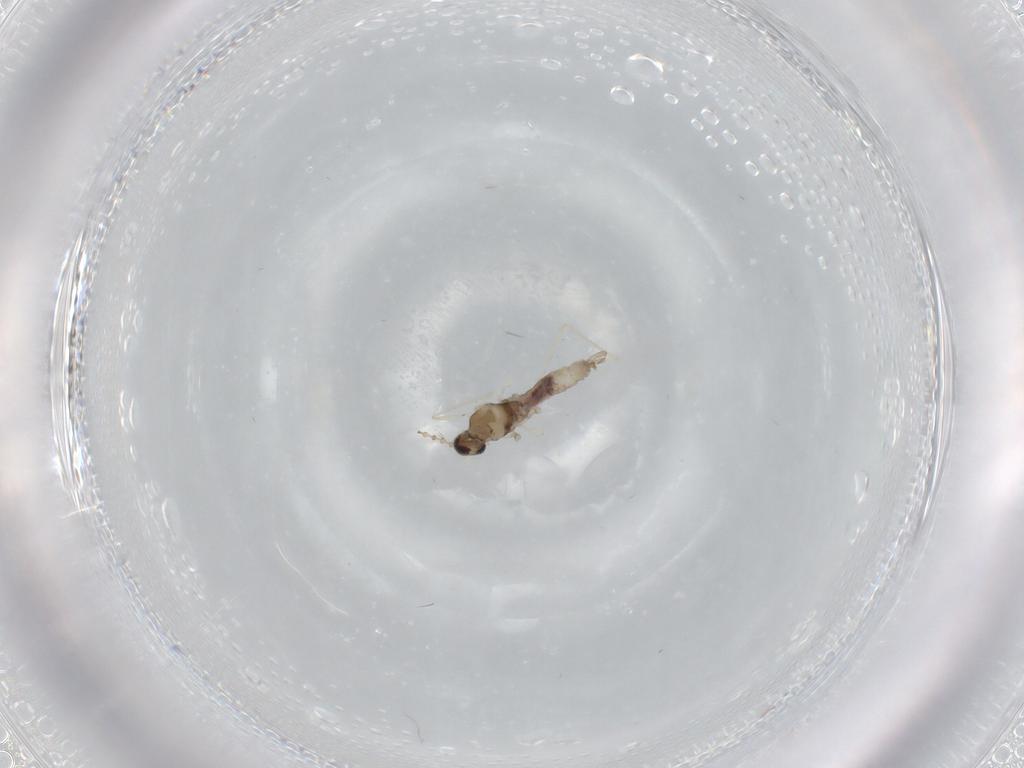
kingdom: Animalia
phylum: Arthropoda
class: Insecta
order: Diptera
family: Cecidomyiidae
